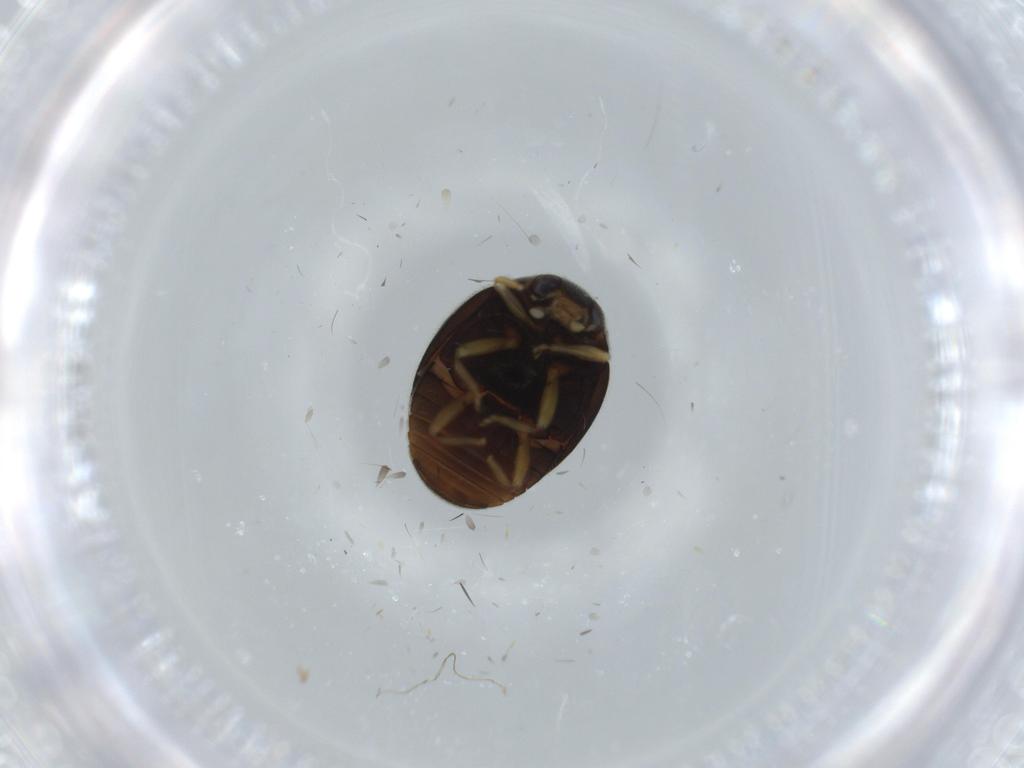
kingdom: Animalia
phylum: Arthropoda
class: Insecta
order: Coleoptera
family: Coccinellidae
